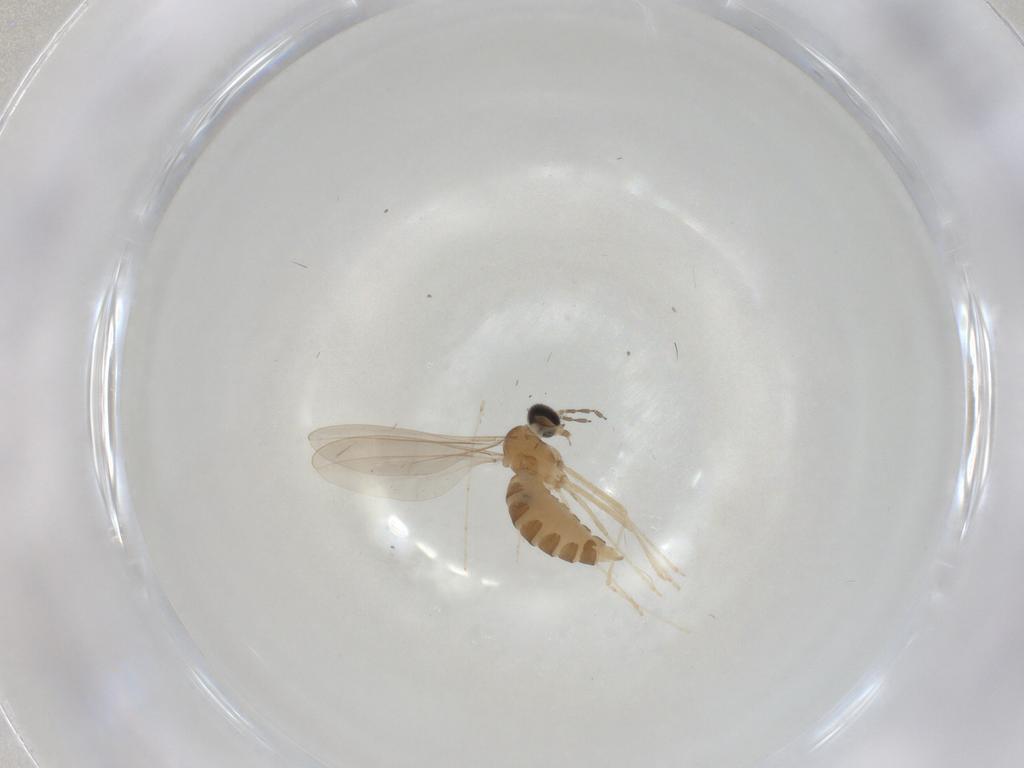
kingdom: Animalia
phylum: Arthropoda
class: Insecta
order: Diptera
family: Cecidomyiidae
